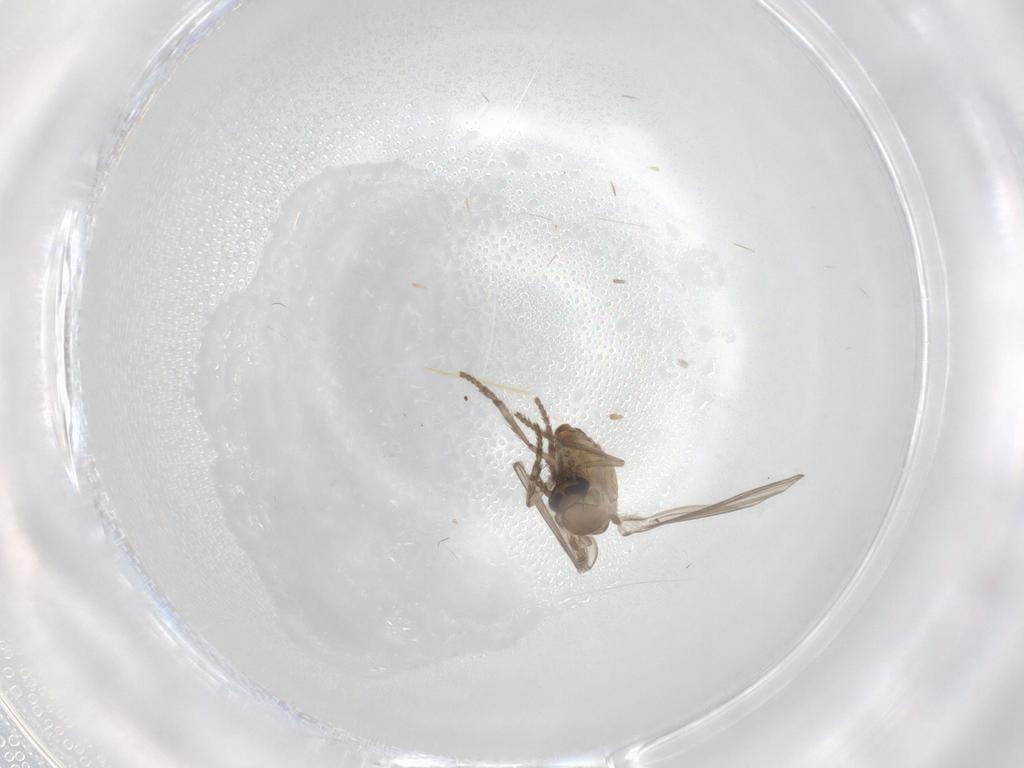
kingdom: Animalia
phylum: Arthropoda
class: Insecta
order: Diptera
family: Psychodidae
